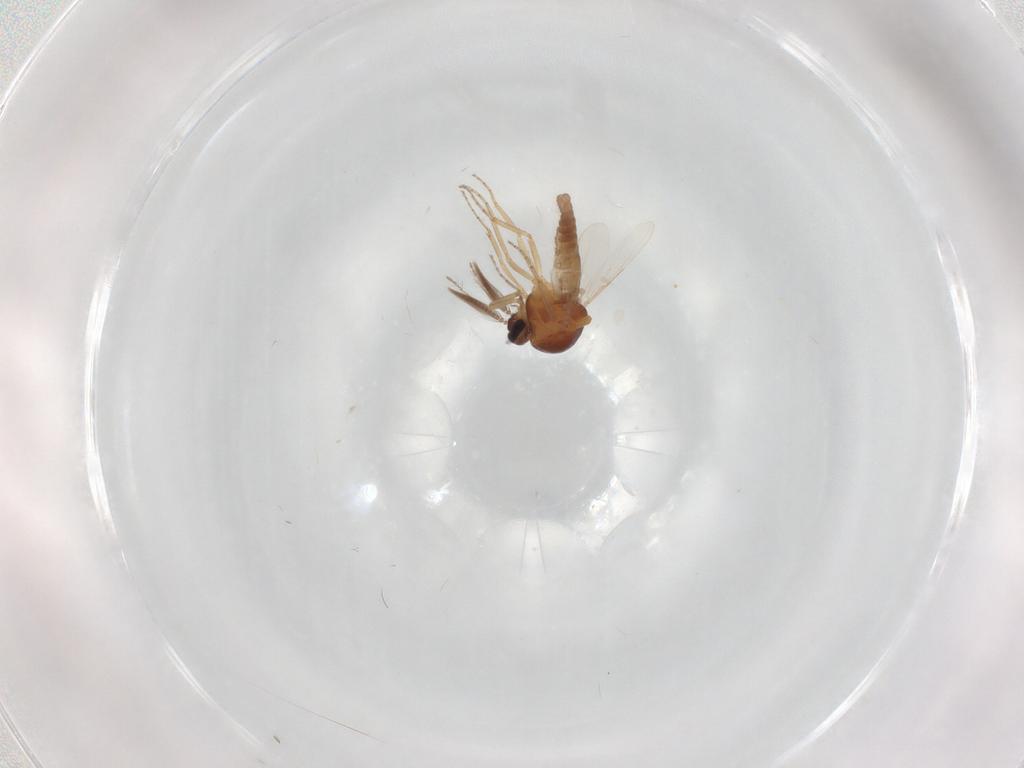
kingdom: Animalia
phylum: Arthropoda
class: Insecta
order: Diptera
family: Ceratopogonidae
